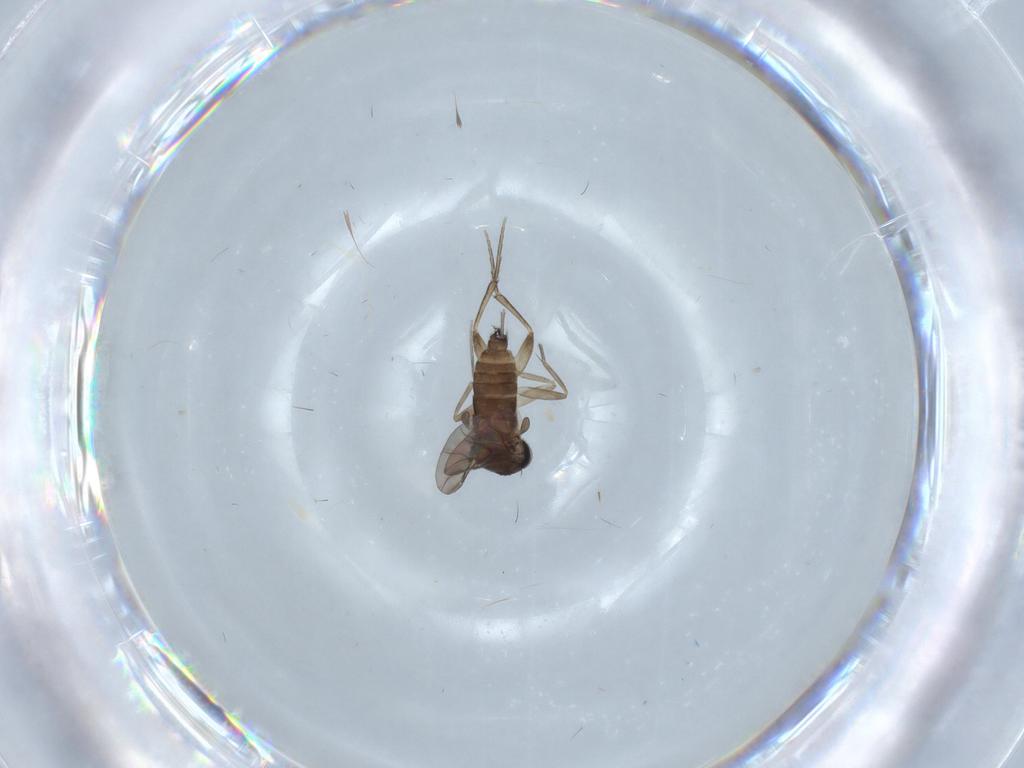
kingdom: Animalia
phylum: Arthropoda
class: Insecta
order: Diptera
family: Phoridae
